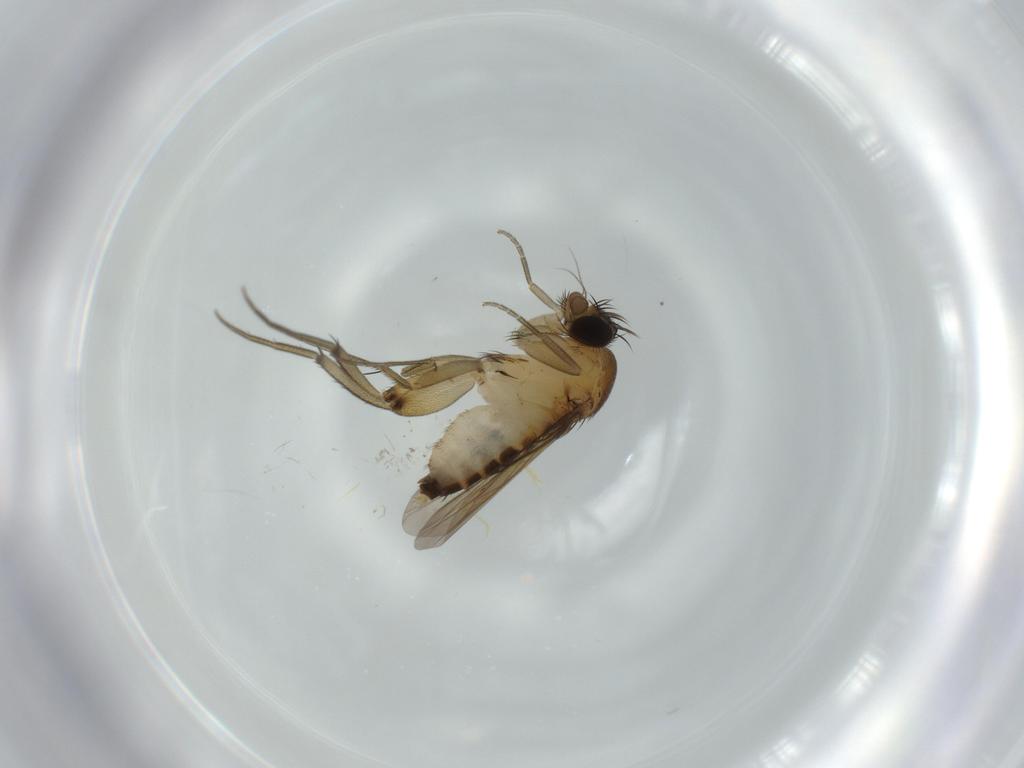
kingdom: Animalia
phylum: Arthropoda
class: Insecta
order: Diptera
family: Phoridae
